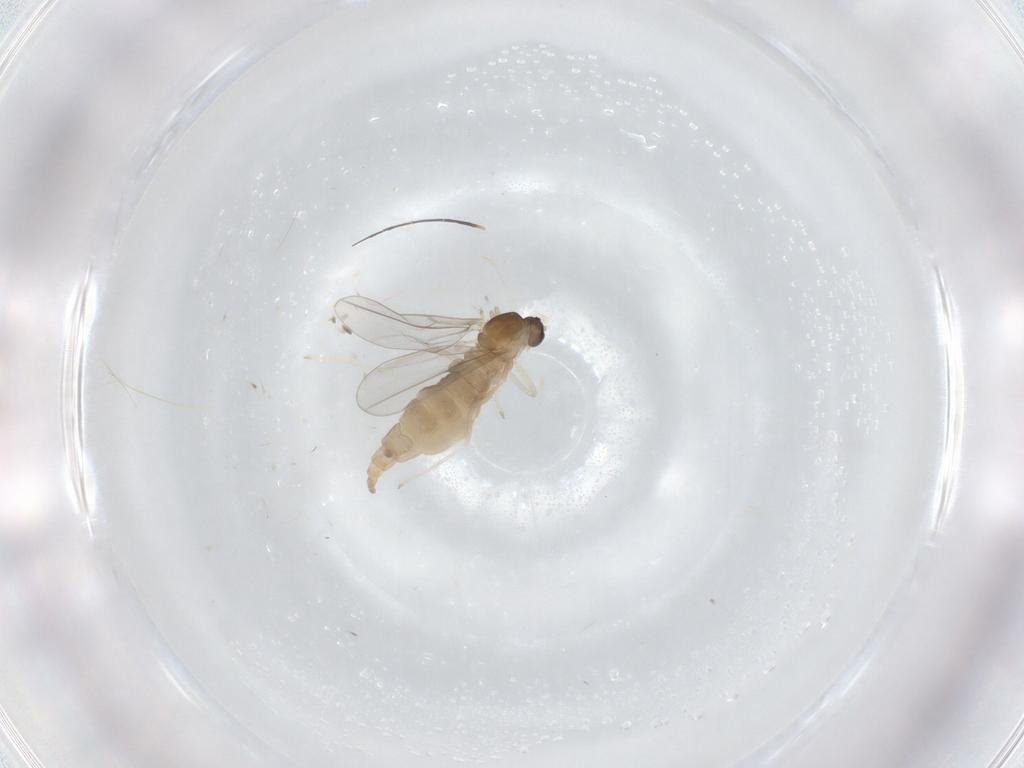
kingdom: Animalia
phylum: Arthropoda
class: Insecta
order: Diptera
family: Cecidomyiidae
